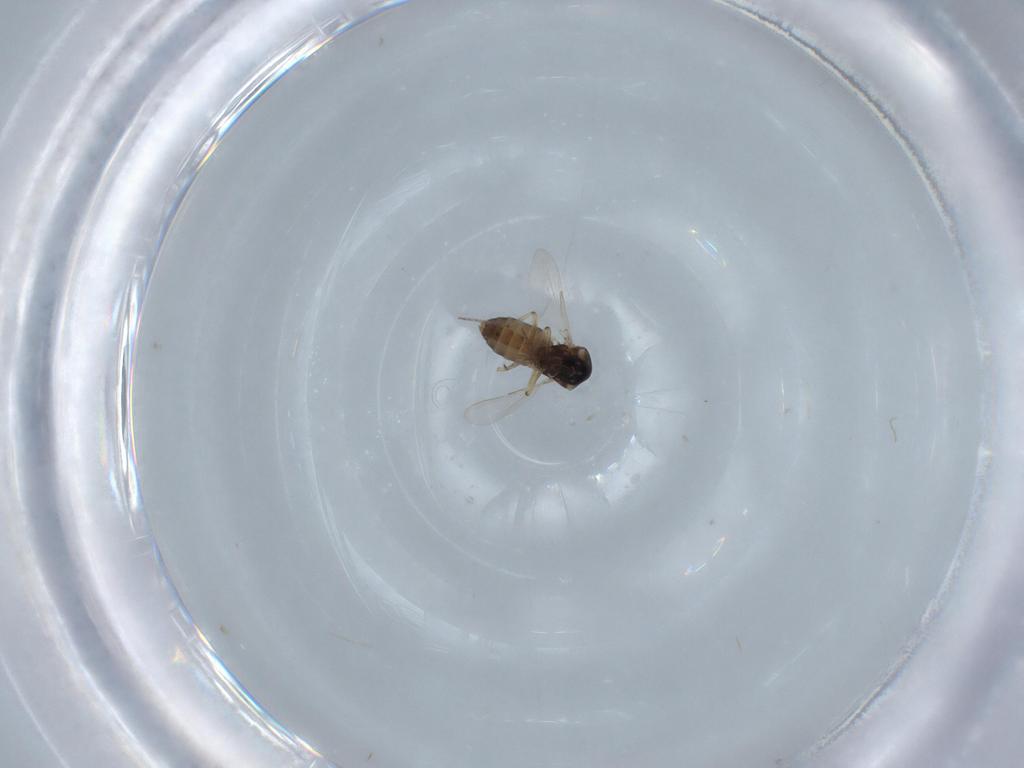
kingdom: Animalia
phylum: Arthropoda
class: Insecta
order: Diptera
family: Ceratopogonidae
